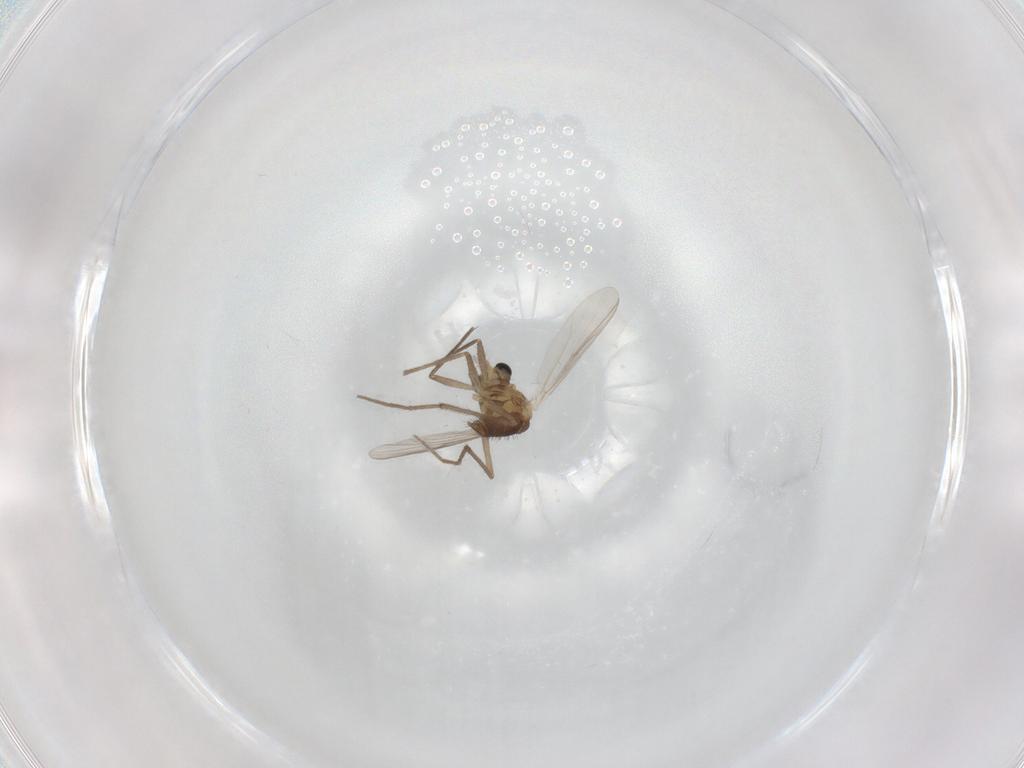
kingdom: Animalia
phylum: Arthropoda
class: Insecta
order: Diptera
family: Chironomidae
